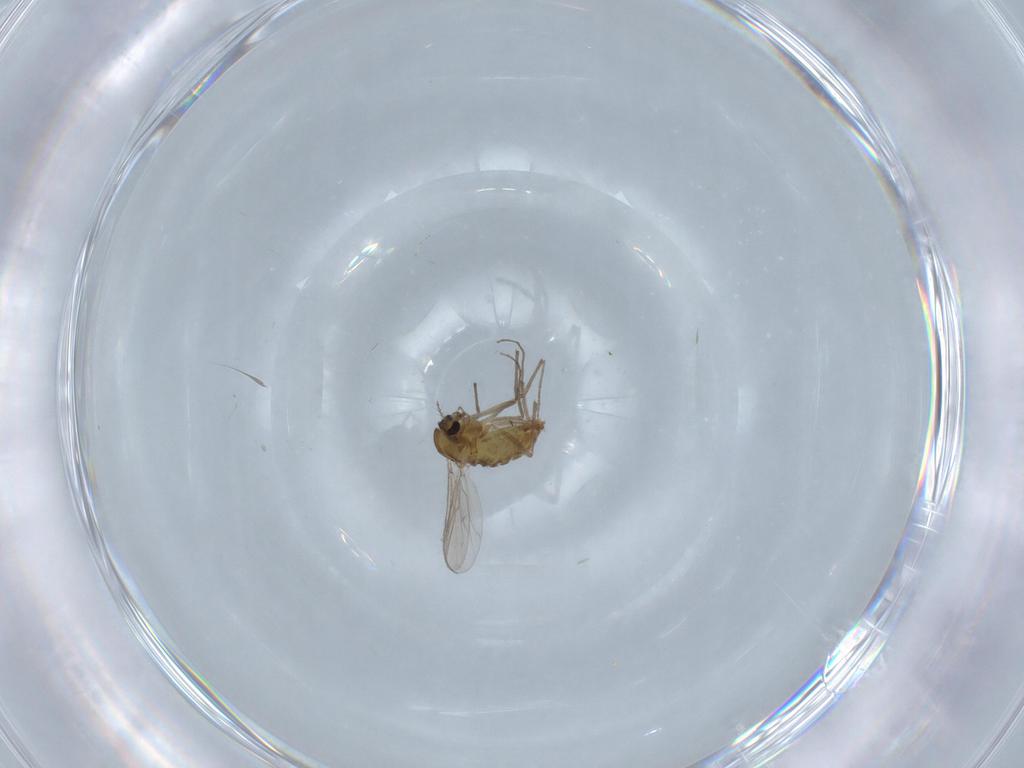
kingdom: Animalia
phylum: Arthropoda
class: Insecta
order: Diptera
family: Chironomidae
